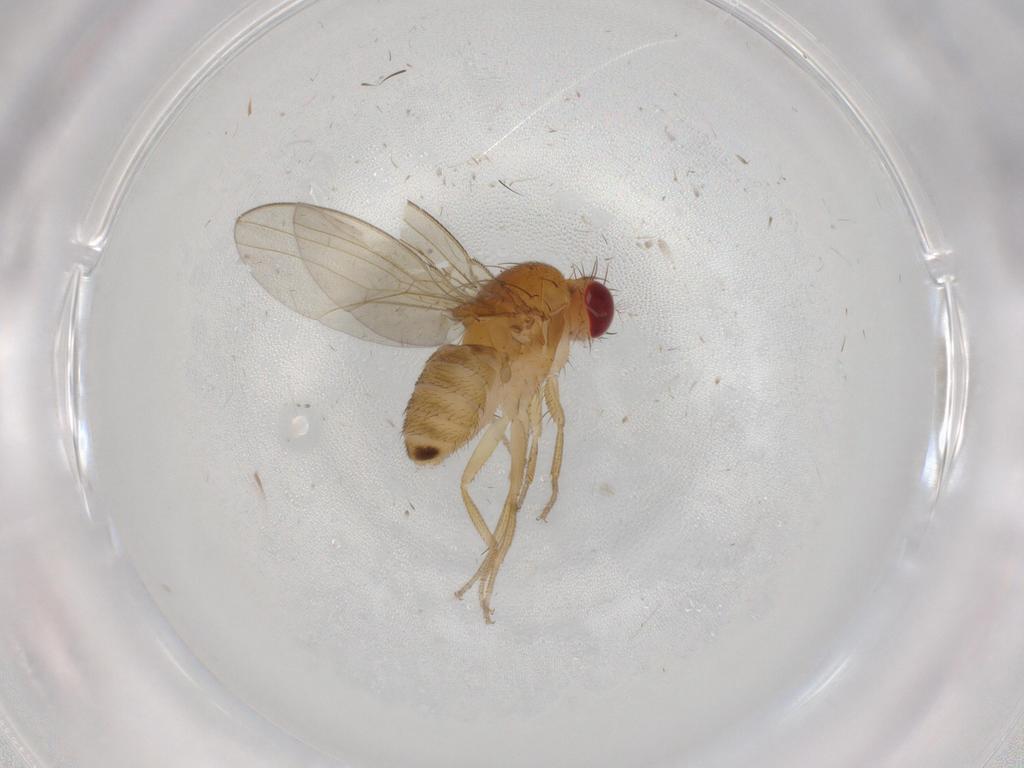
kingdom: Animalia
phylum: Arthropoda
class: Insecta
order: Diptera
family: Drosophilidae
